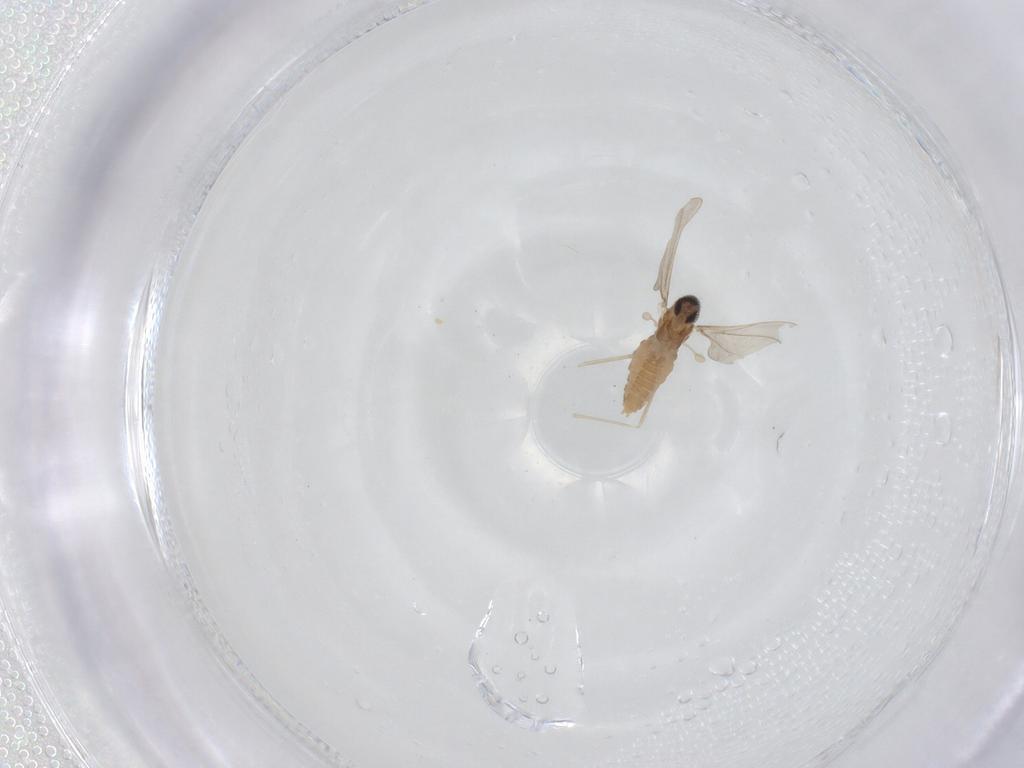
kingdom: Animalia
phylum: Arthropoda
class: Insecta
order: Diptera
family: Cecidomyiidae
